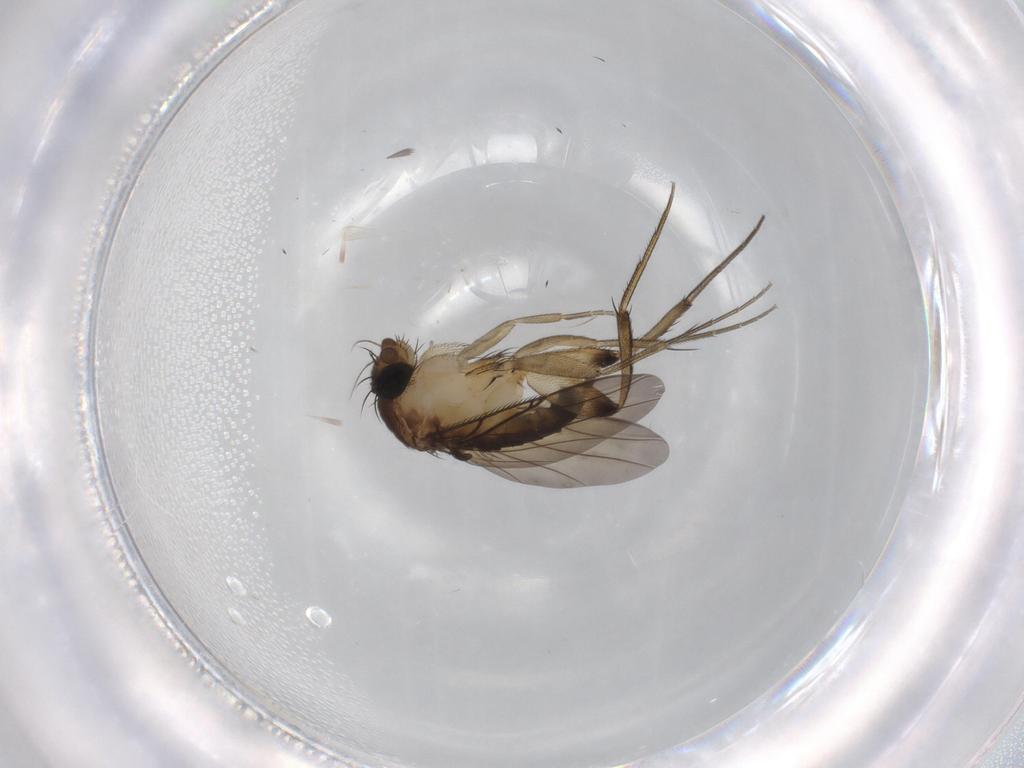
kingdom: Animalia
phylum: Arthropoda
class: Insecta
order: Diptera
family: Phoridae
